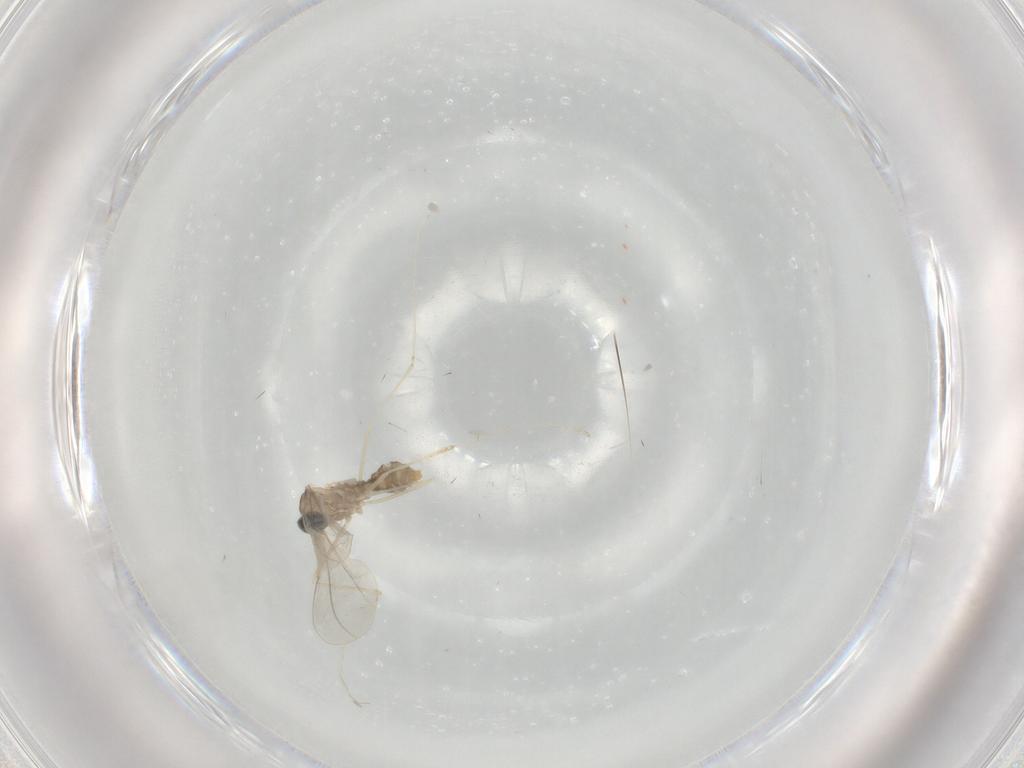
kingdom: Animalia
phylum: Arthropoda
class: Insecta
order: Diptera
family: Cecidomyiidae
